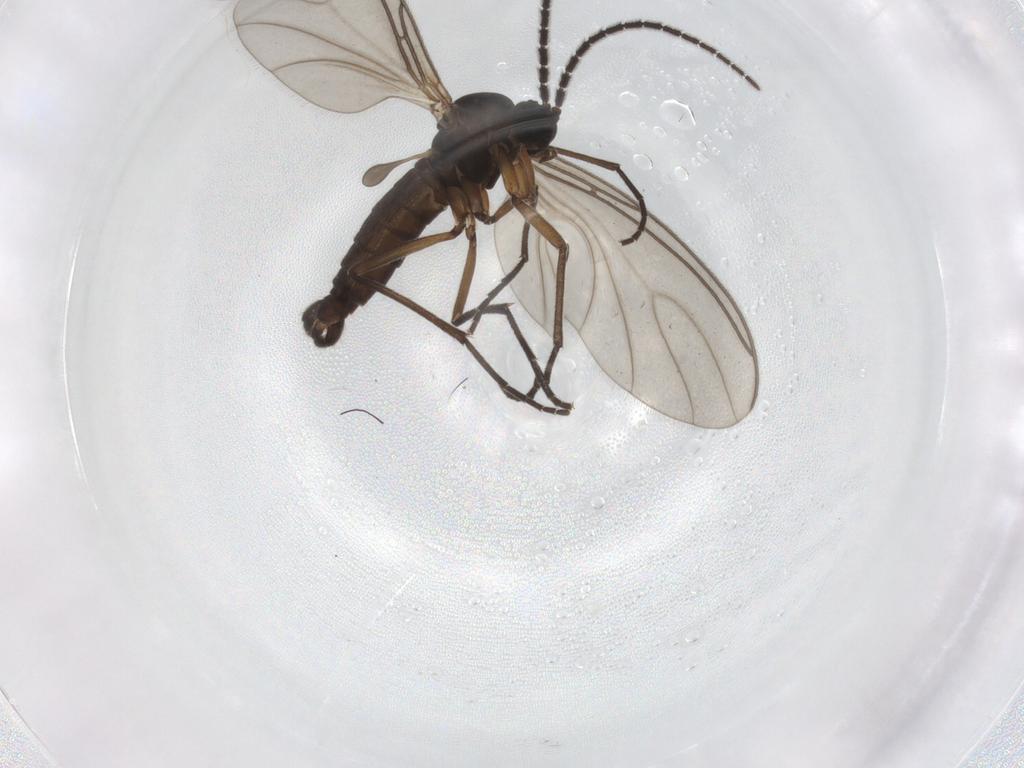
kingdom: Animalia
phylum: Arthropoda
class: Insecta
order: Diptera
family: Sciaridae
